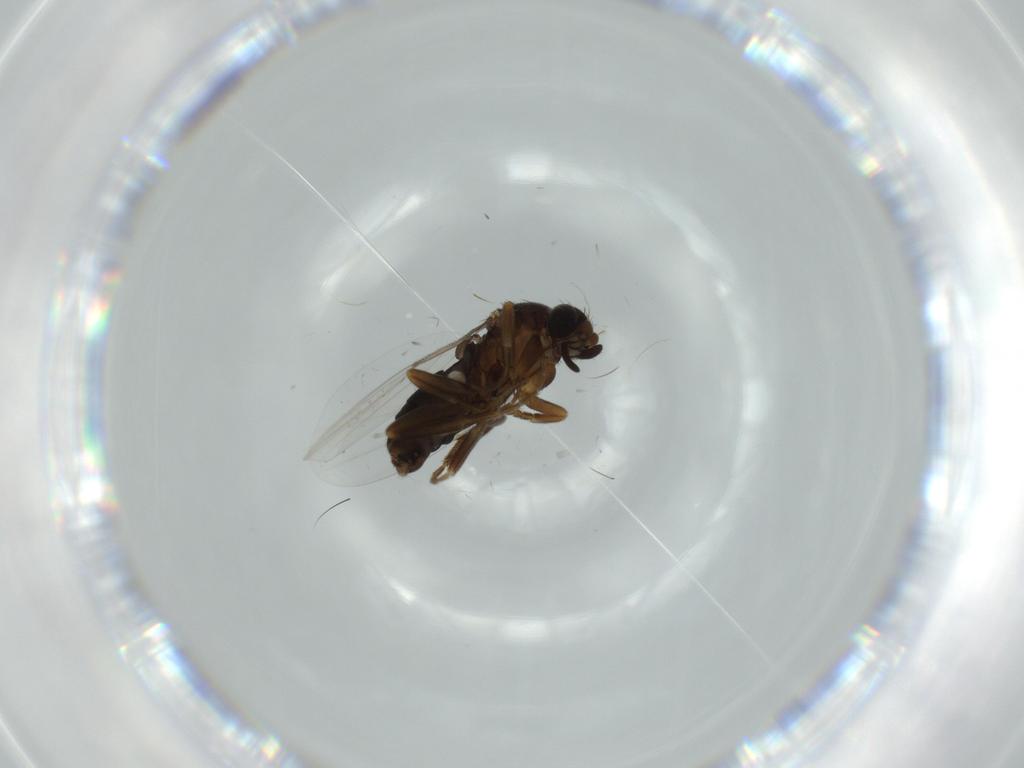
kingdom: Animalia
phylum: Arthropoda
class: Insecta
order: Diptera
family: Phoridae
